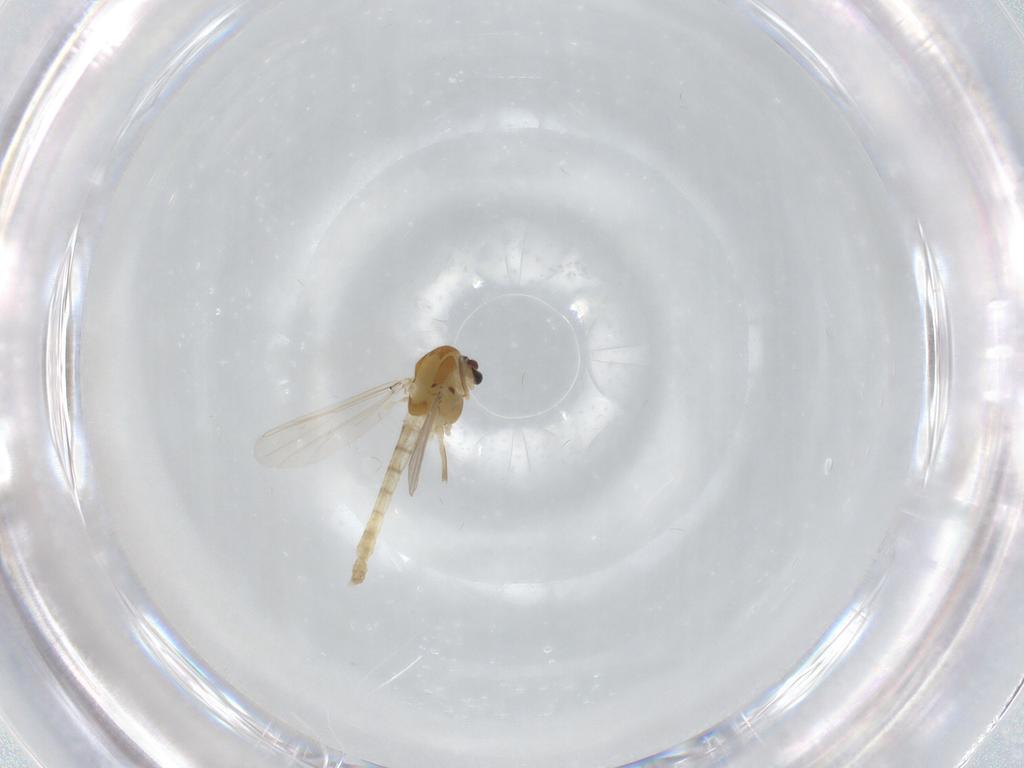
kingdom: Animalia
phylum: Arthropoda
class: Insecta
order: Diptera
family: Chironomidae
